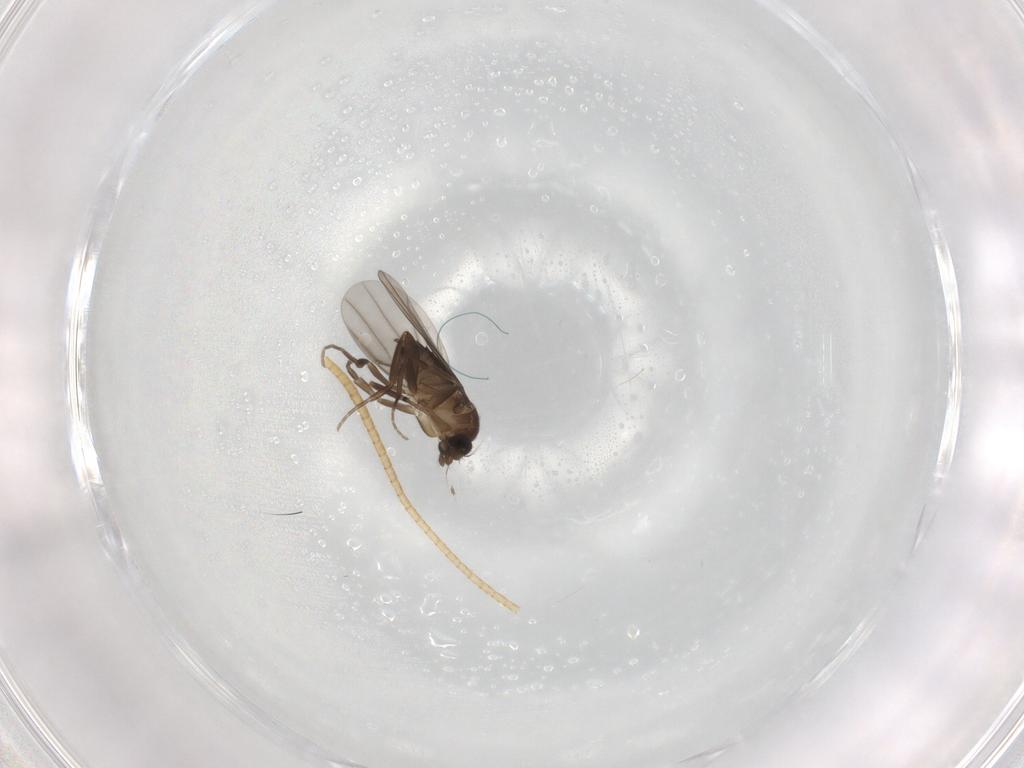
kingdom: Animalia
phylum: Arthropoda
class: Insecta
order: Diptera
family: Phoridae
